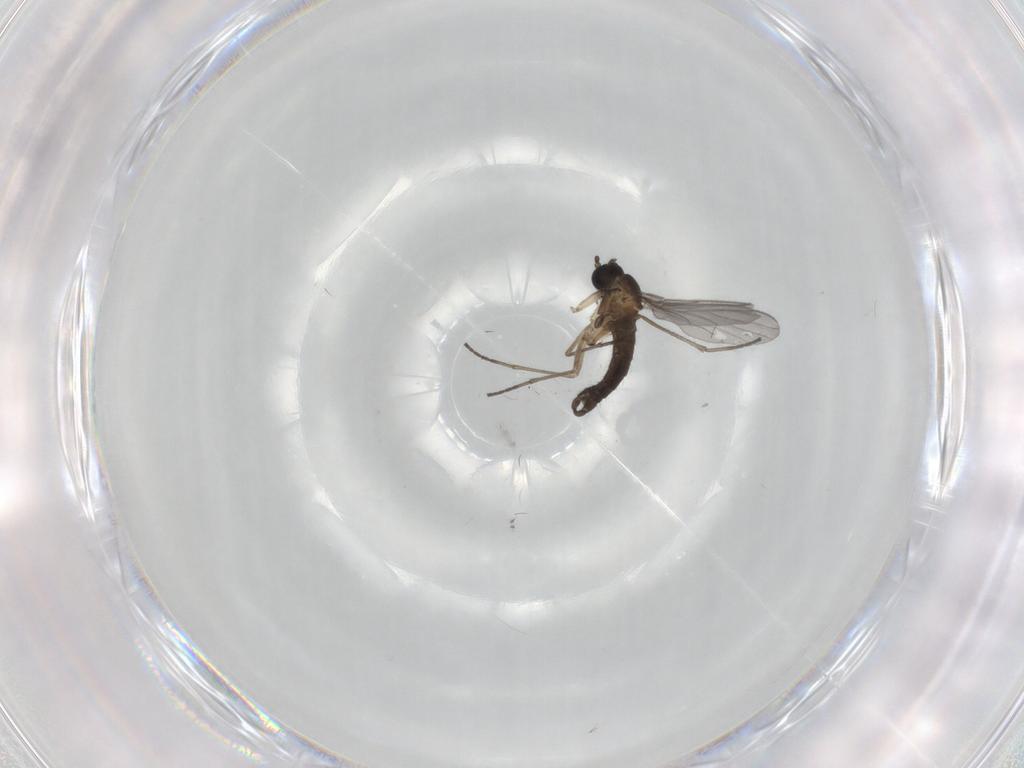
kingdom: Animalia
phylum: Arthropoda
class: Insecta
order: Diptera
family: Sciaridae
